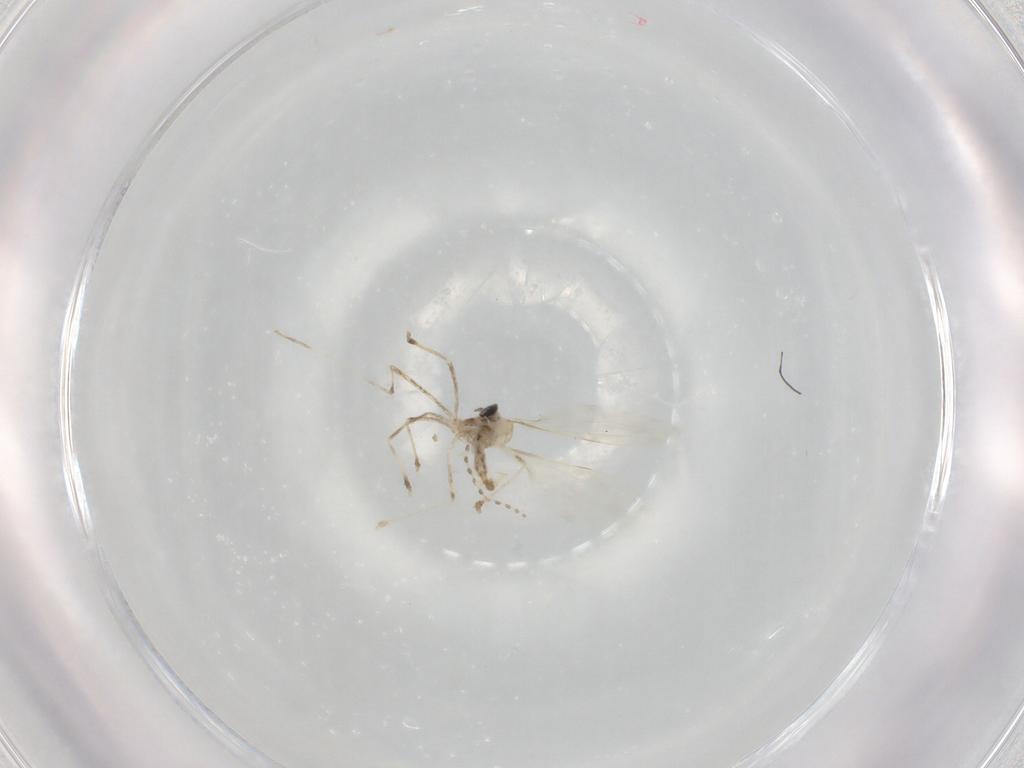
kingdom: Animalia
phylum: Arthropoda
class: Insecta
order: Diptera
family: Cecidomyiidae
